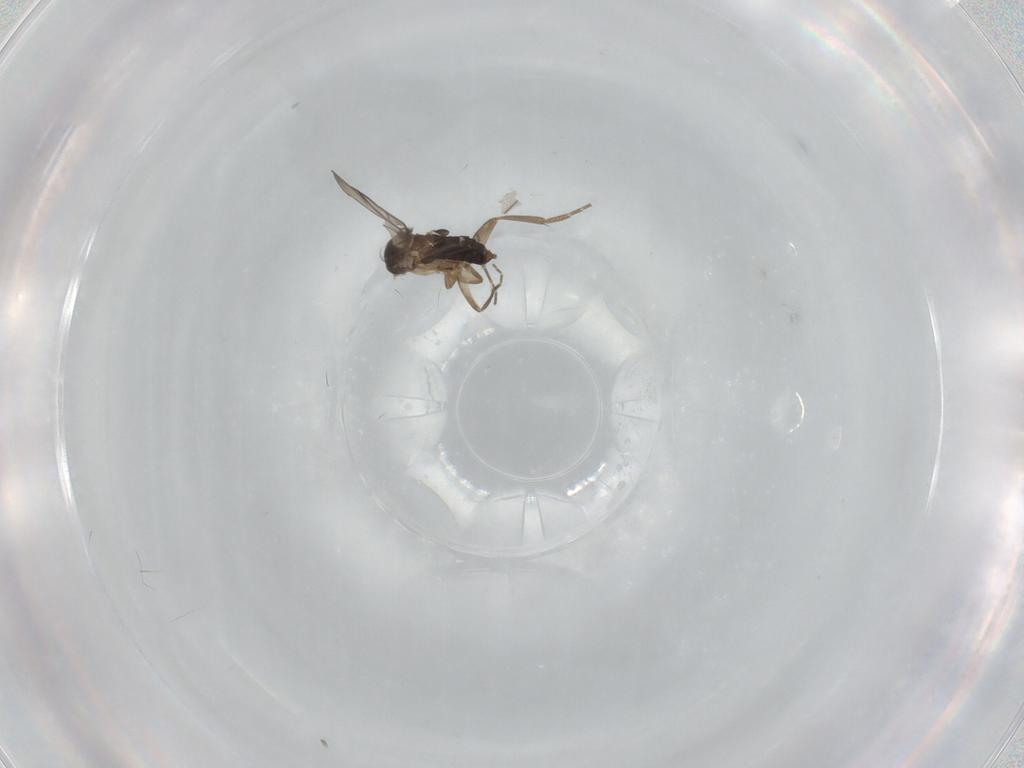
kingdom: Animalia
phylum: Arthropoda
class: Insecta
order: Diptera
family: Phoridae
